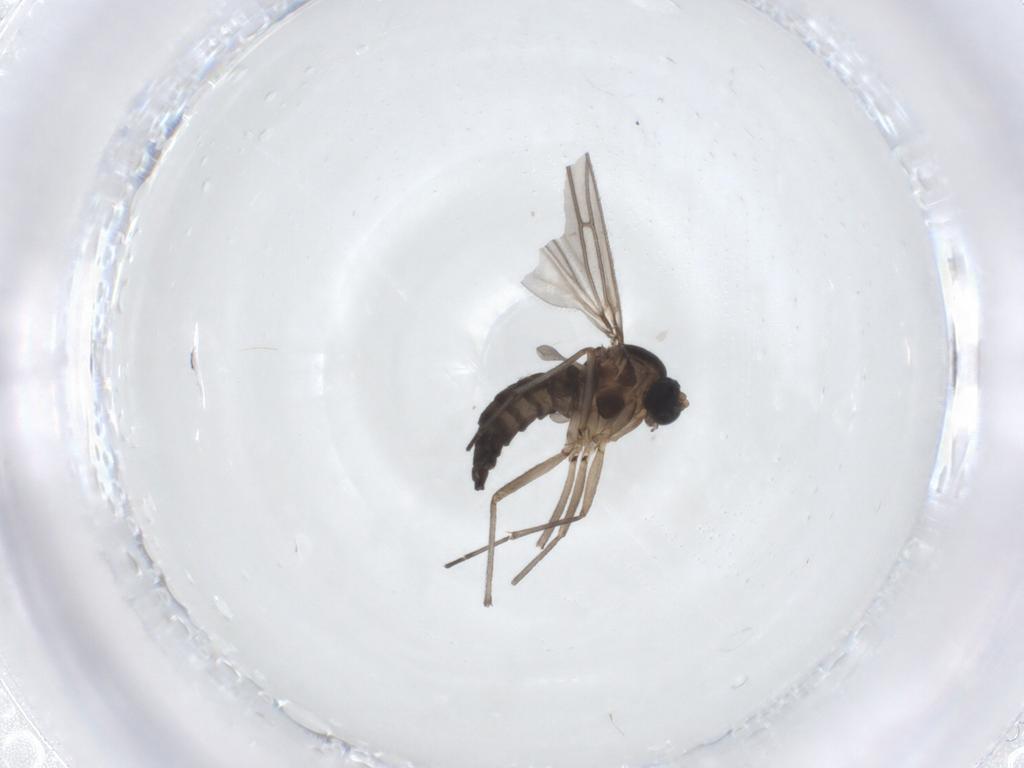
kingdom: Animalia
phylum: Arthropoda
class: Insecta
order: Diptera
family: Sciaridae
